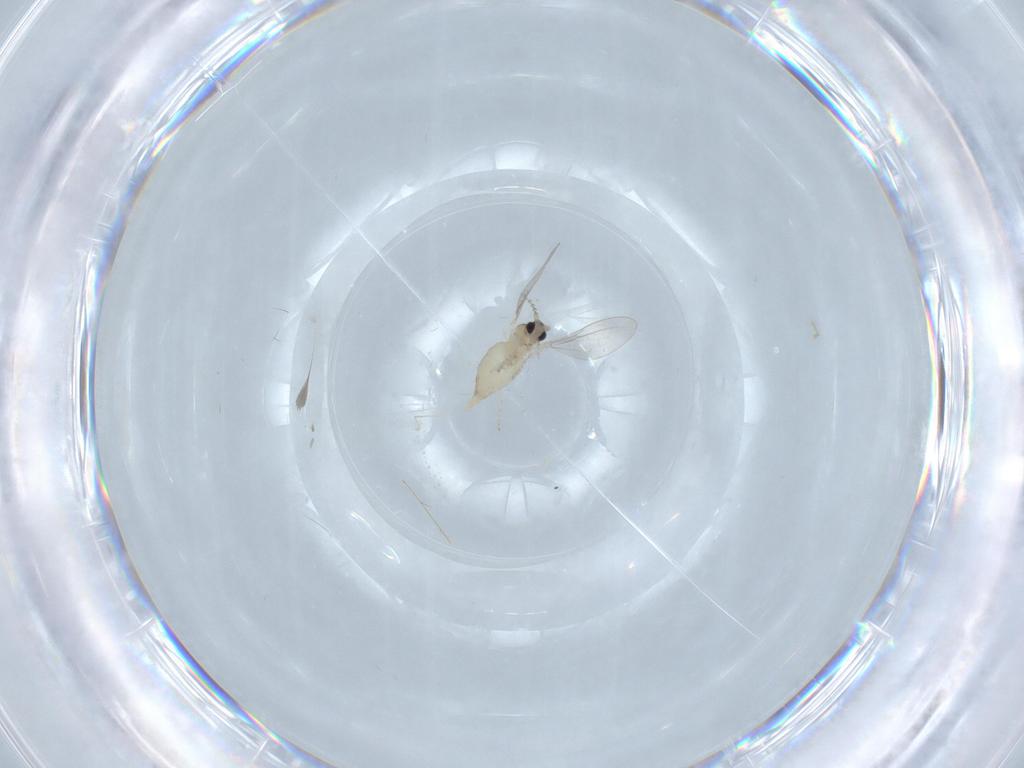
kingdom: Animalia
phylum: Arthropoda
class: Insecta
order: Diptera
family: Cecidomyiidae
